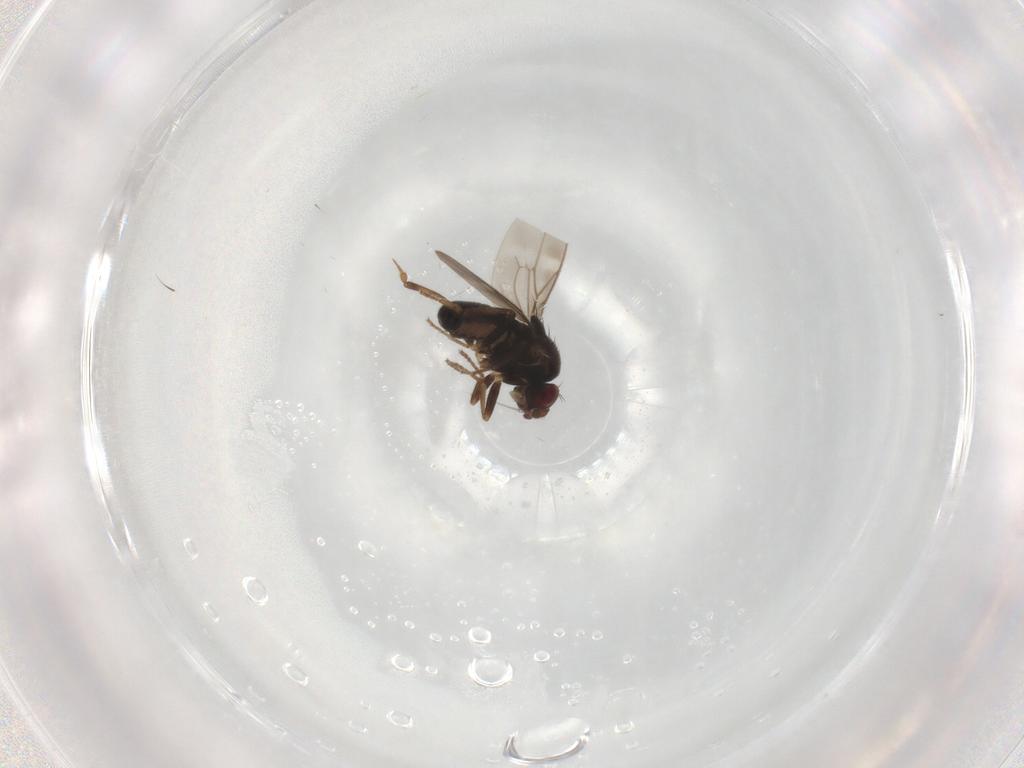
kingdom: Animalia
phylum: Arthropoda
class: Insecta
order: Diptera
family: Sphaeroceridae
